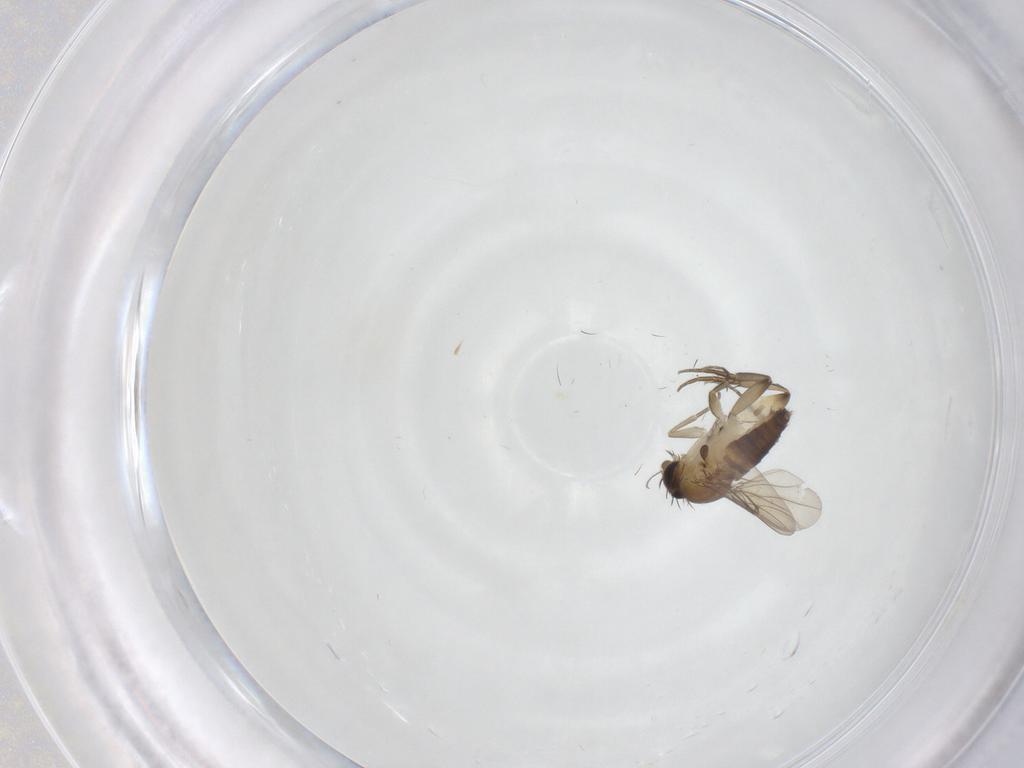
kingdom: Animalia
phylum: Arthropoda
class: Insecta
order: Diptera
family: Phoridae
